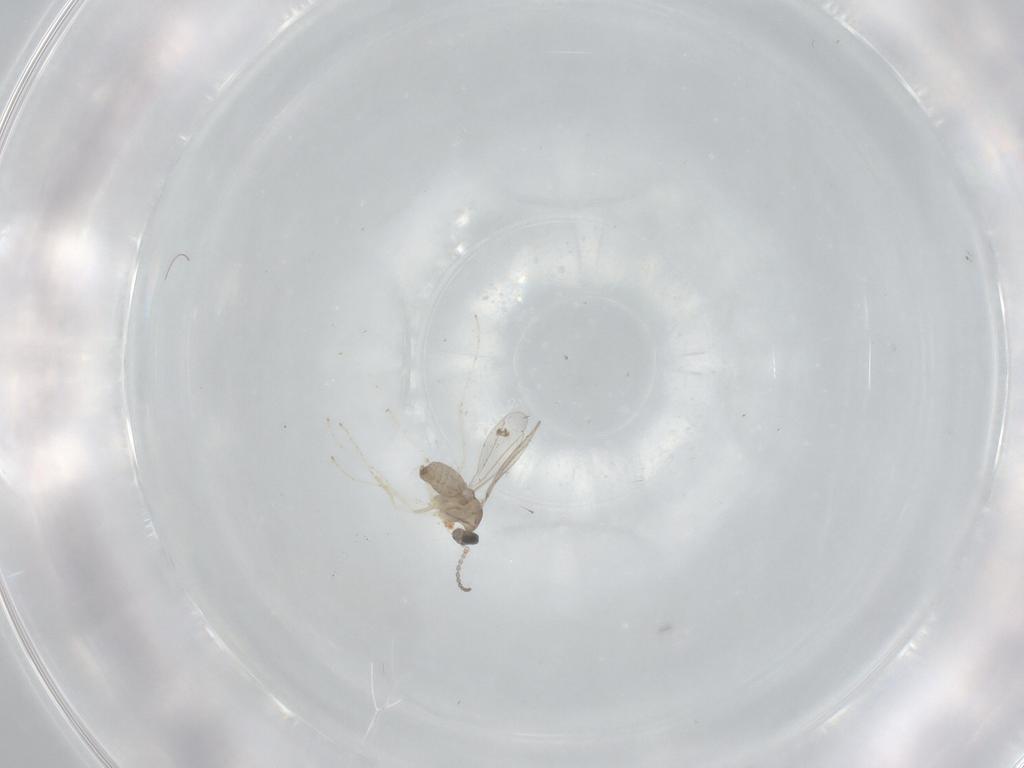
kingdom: Animalia
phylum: Arthropoda
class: Insecta
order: Diptera
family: Cecidomyiidae
